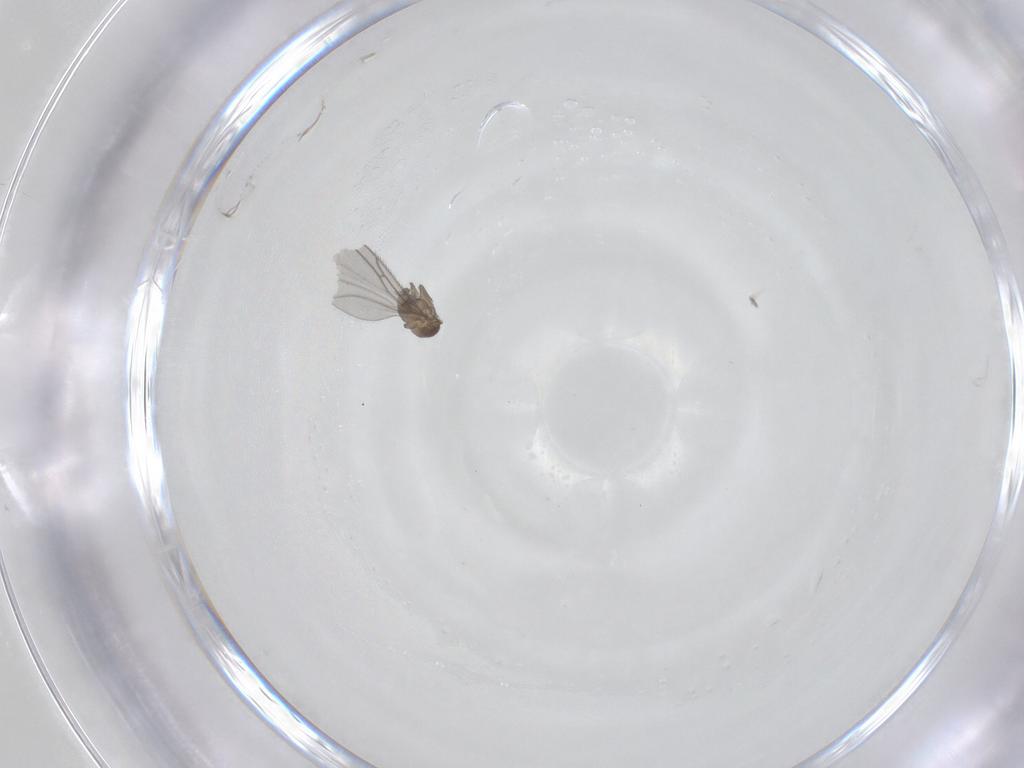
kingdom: Animalia
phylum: Arthropoda
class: Insecta
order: Diptera
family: Sciaridae
